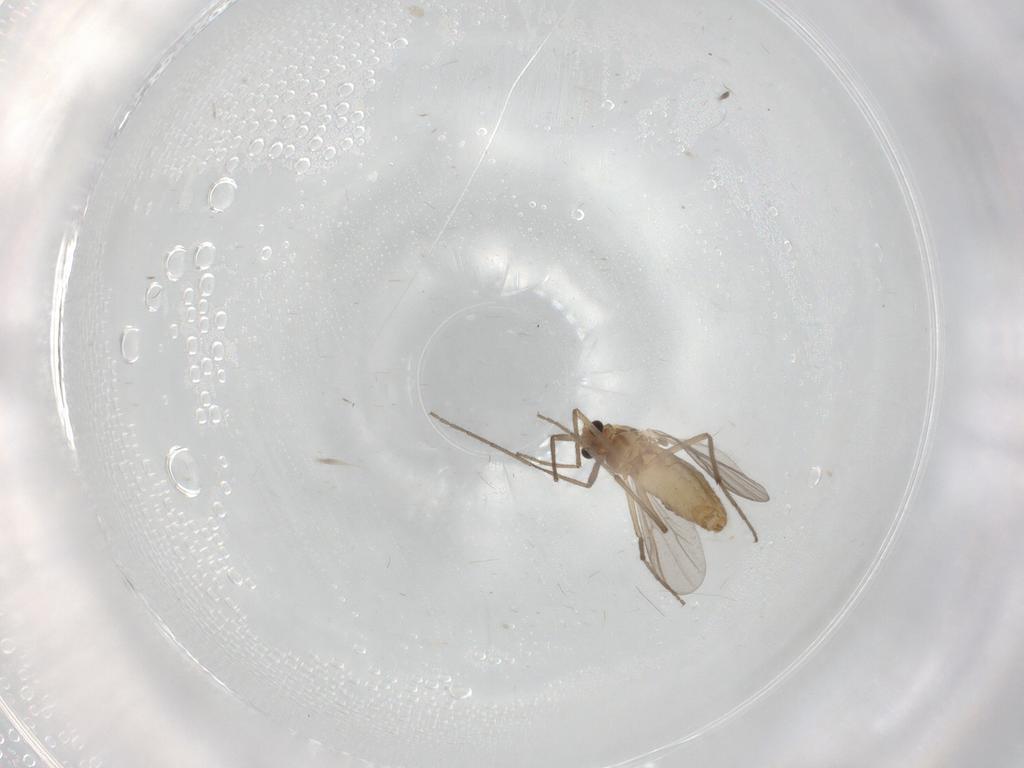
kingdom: Animalia
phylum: Arthropoda
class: Insecta
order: Diptera
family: Chironomidae
